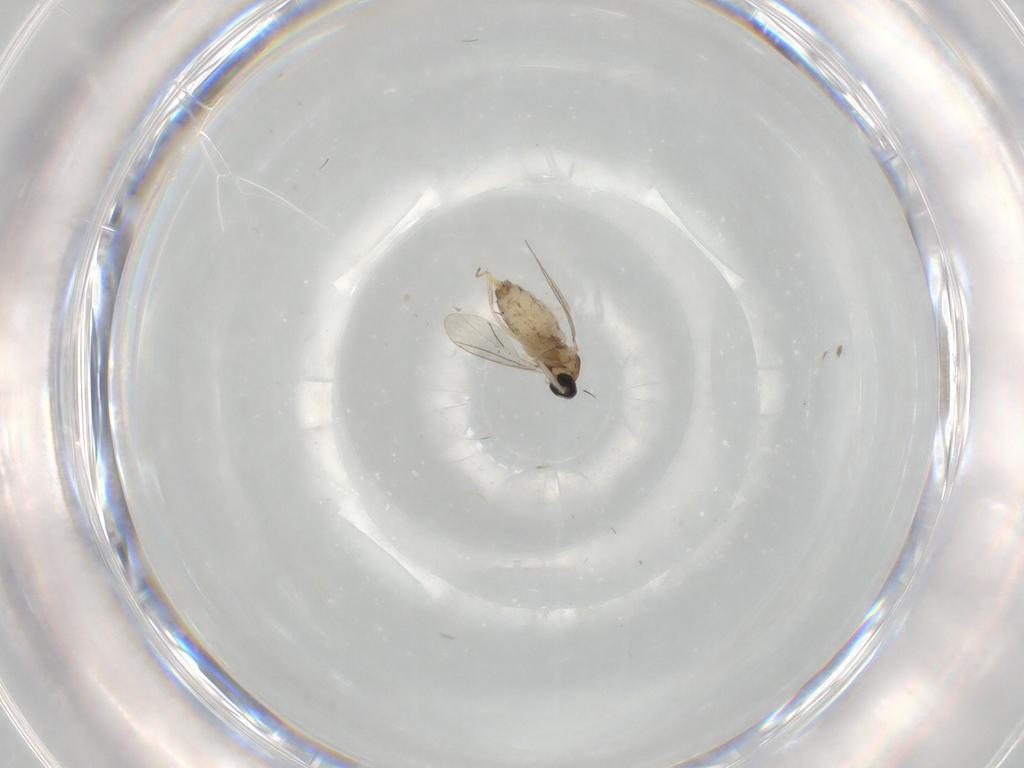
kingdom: Animalia
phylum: Arthropoda
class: Insecta
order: Diptera
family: Cecidomyiidae
